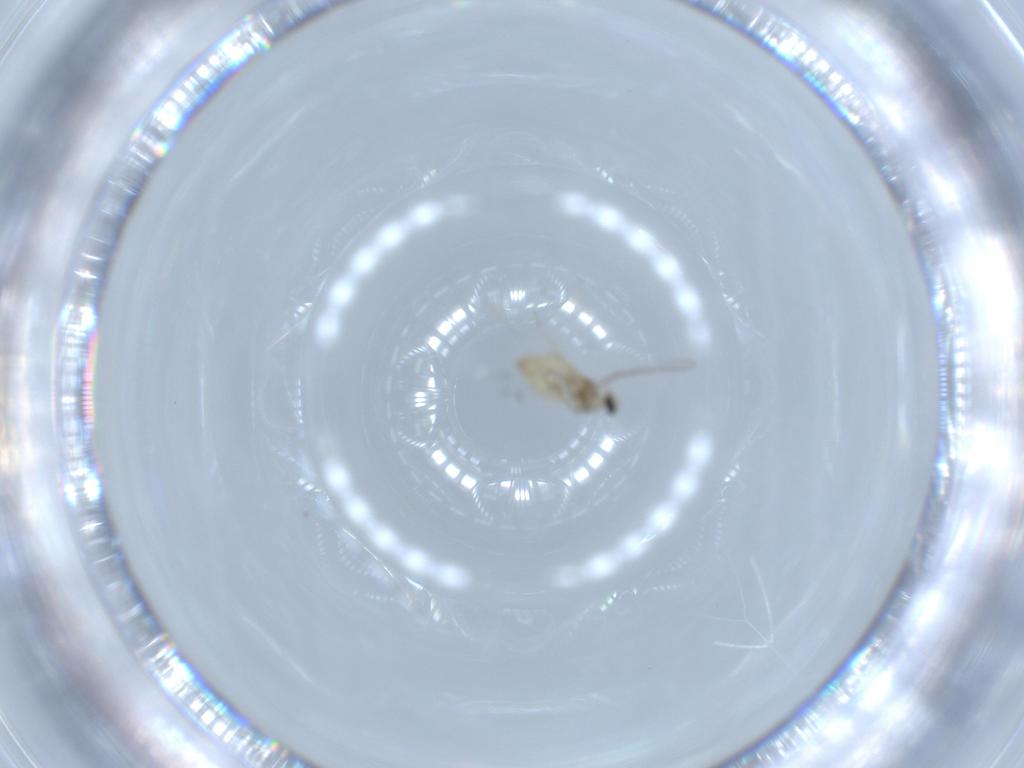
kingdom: Animalia
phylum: Arthropoda
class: Insecta
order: Diptera
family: Cecidomyiidae
